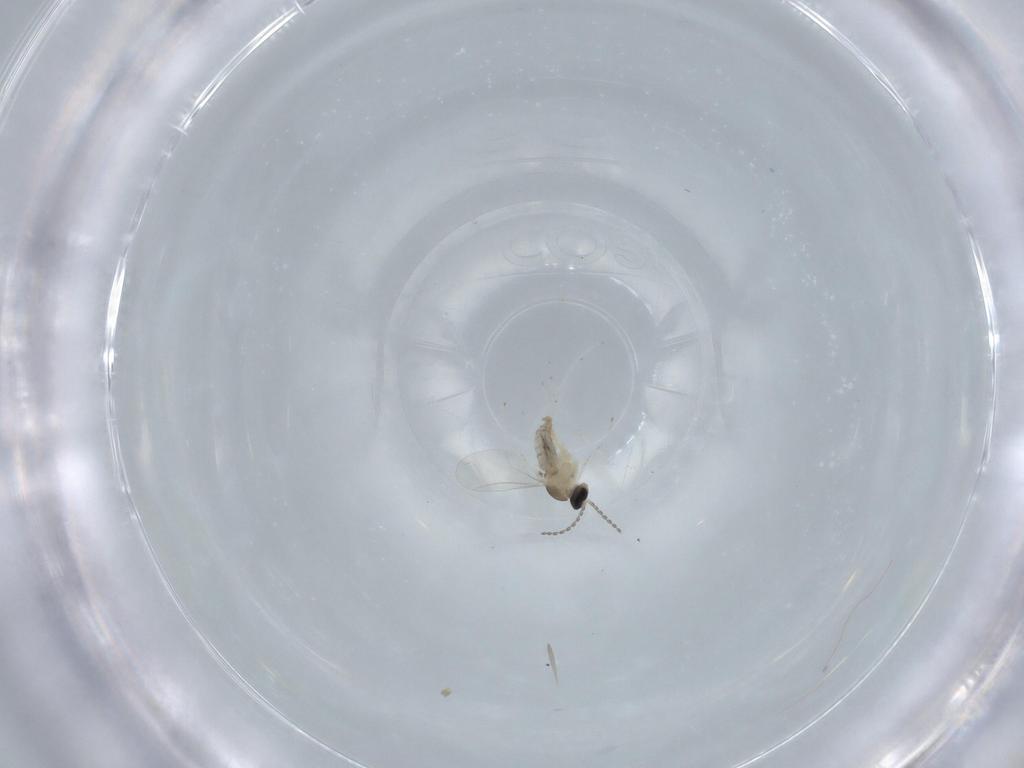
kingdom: Animalia
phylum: Arthropoda
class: Insecta
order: Diptera
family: Cecidomyiidae
